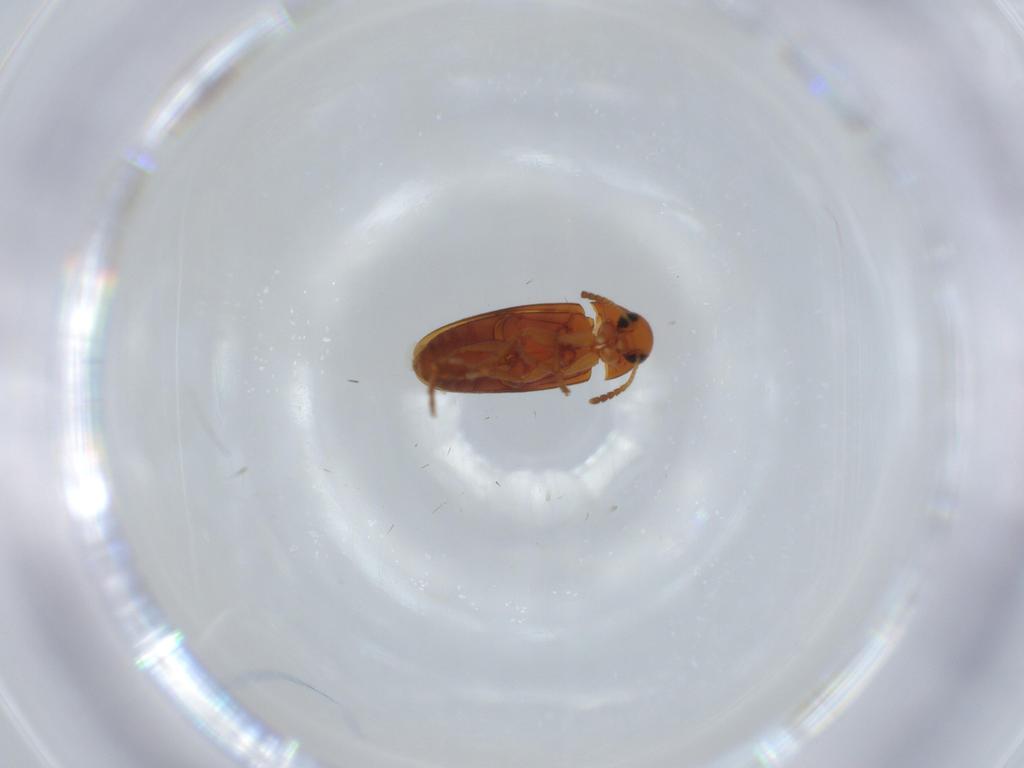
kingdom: Animalia
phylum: Arthropoda
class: Insecta
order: Coleoptera
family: Scraptiidae
